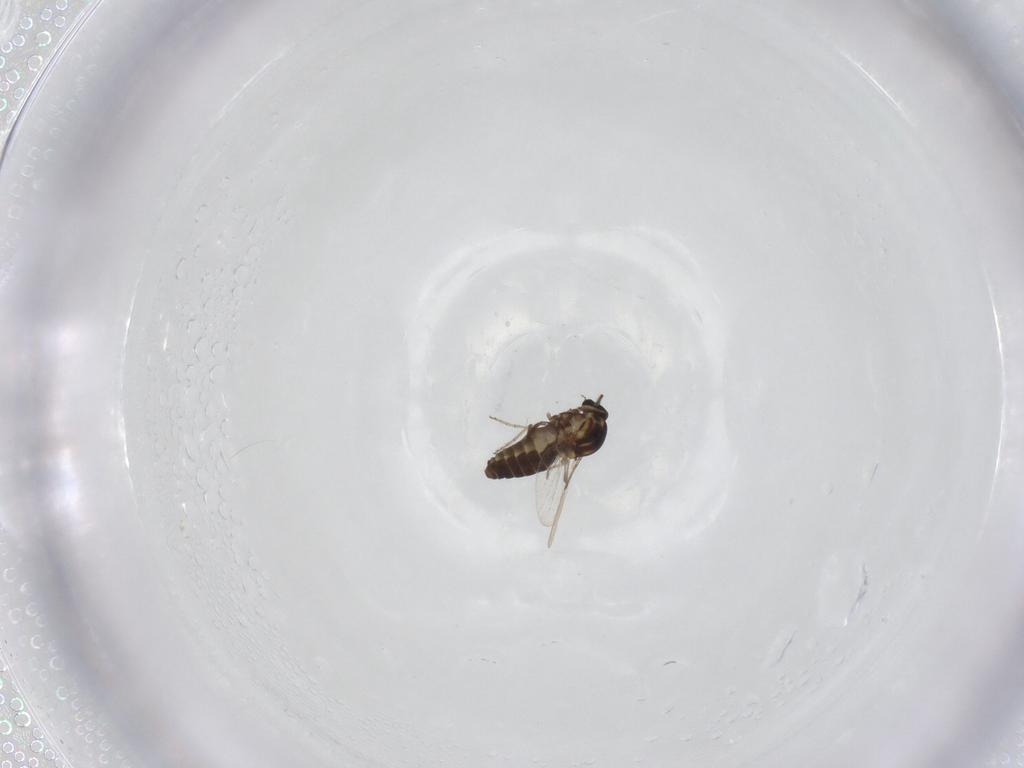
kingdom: Animalia
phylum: Arthropoda
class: Insecta
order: Diptera
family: Ceratopogonidae
